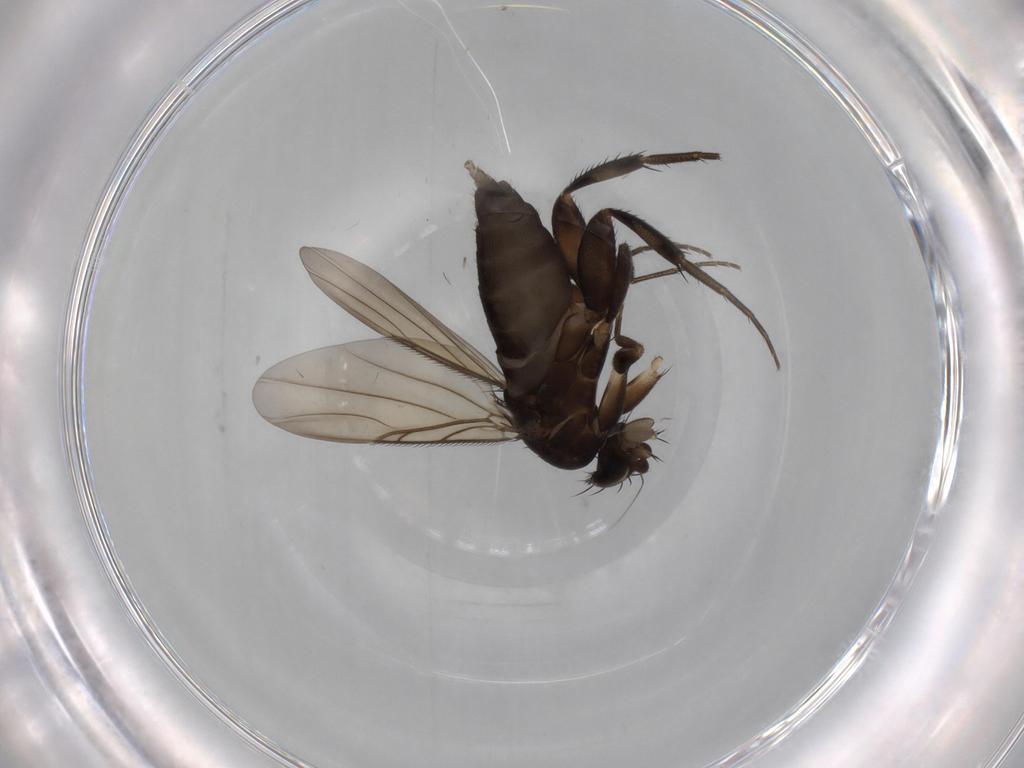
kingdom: Animalia
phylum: Arthropoda
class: Insecta
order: Diptera
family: Phoridae
